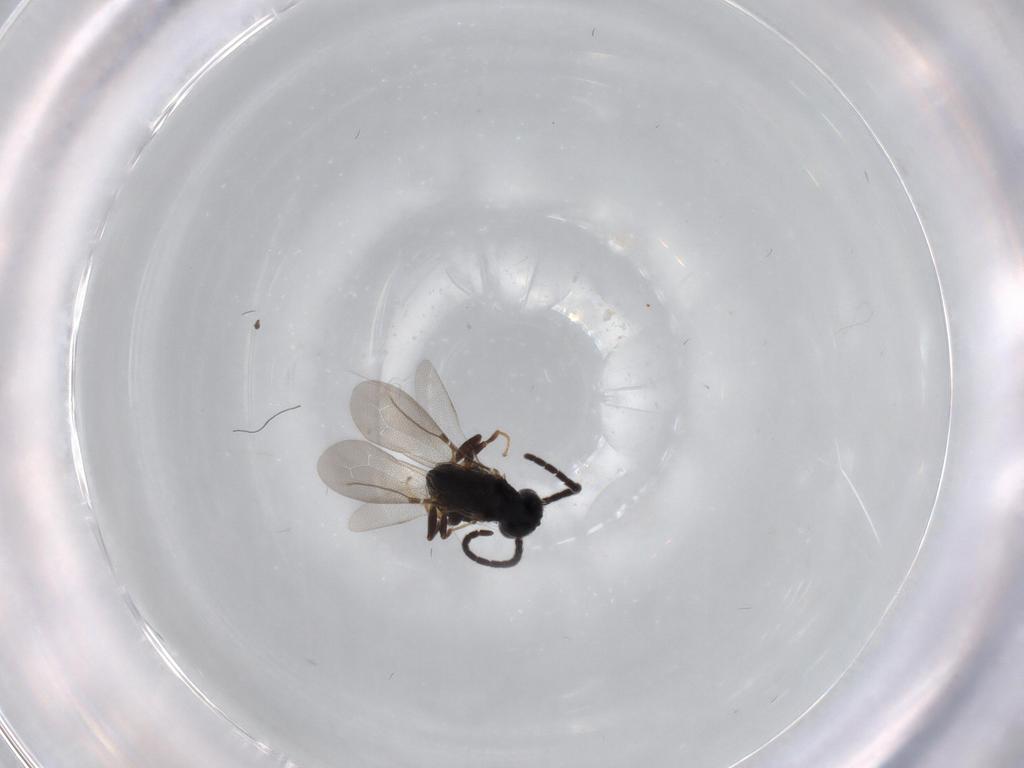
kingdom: Animalia
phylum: Arthropoda
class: Insecta
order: Hymenoptera
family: Bethylidae
